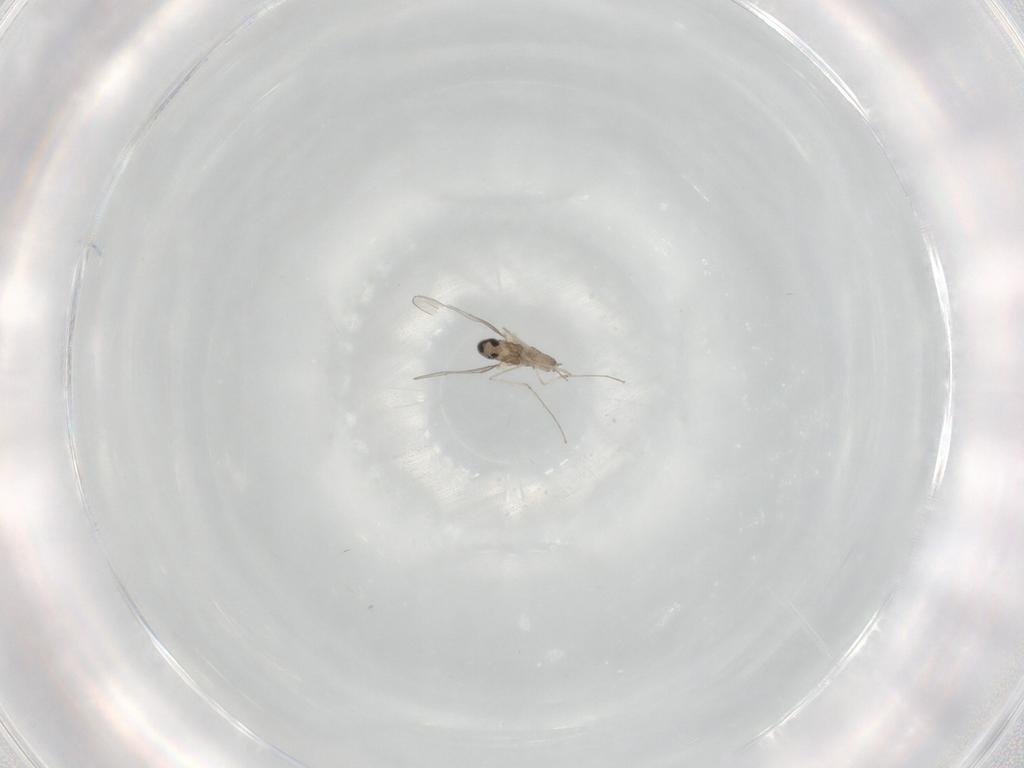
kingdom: Animalia
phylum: Arthropoda
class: Insecta
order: Diptera
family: Cecidomyiidae
